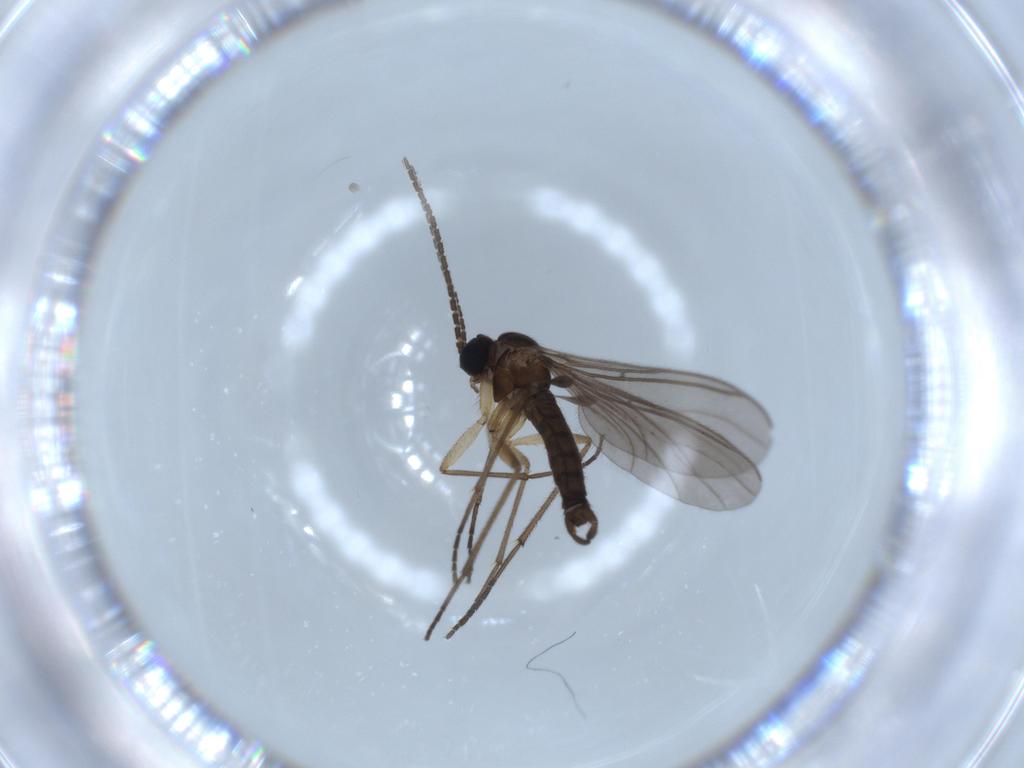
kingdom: Animalia
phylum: Arthropoda
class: Insecta
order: Diptera
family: Sciaridae
